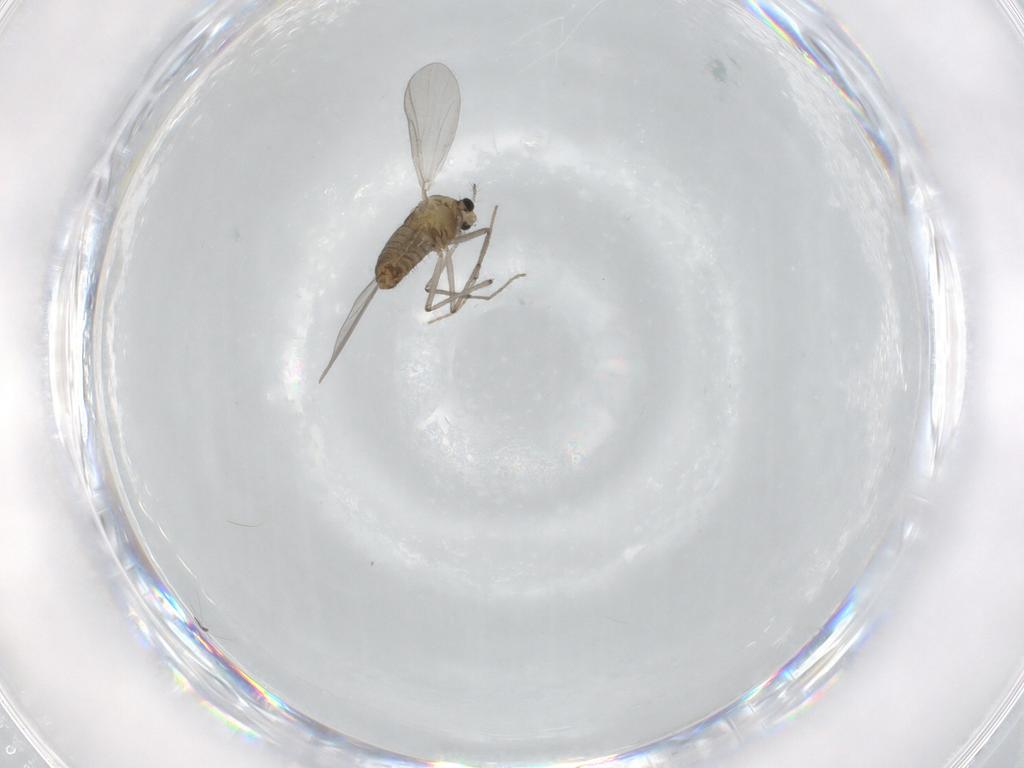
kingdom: Animalia
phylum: Arthropoda
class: Insecta
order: Diptera
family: Chironomidae
